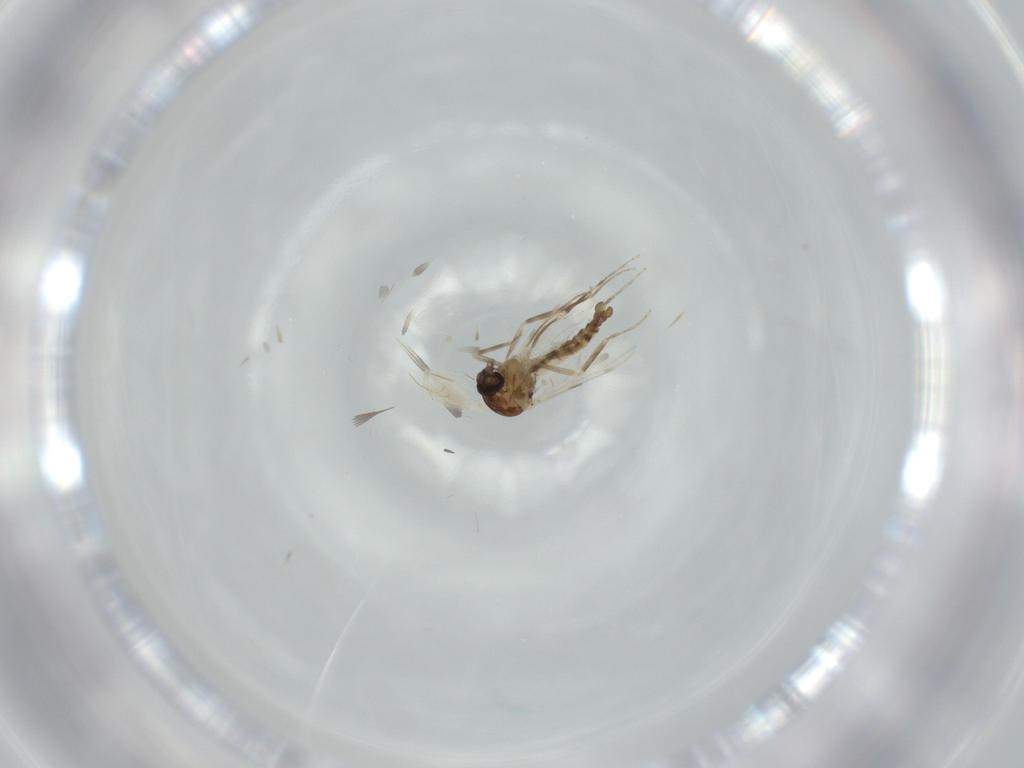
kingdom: Animalia
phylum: Arthropoda
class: Insecta
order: Diptera
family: Ceratopogonidae
